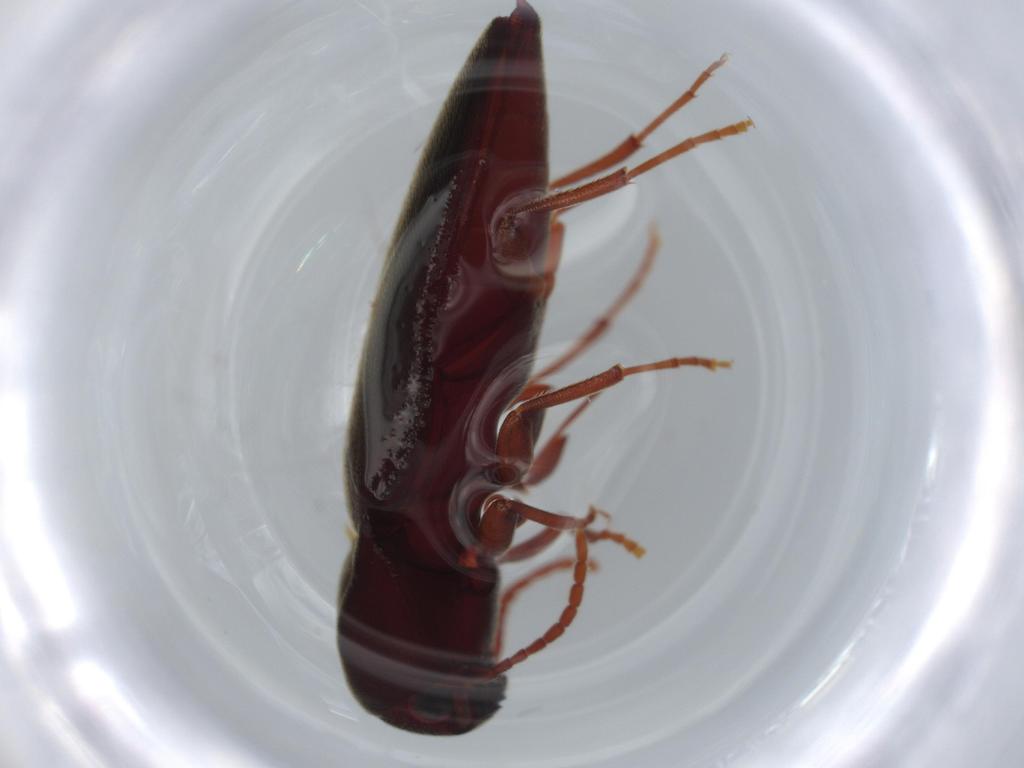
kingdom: Animalia
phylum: Arthropoda
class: Insecta
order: Coleoptera
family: Eucnemidae
